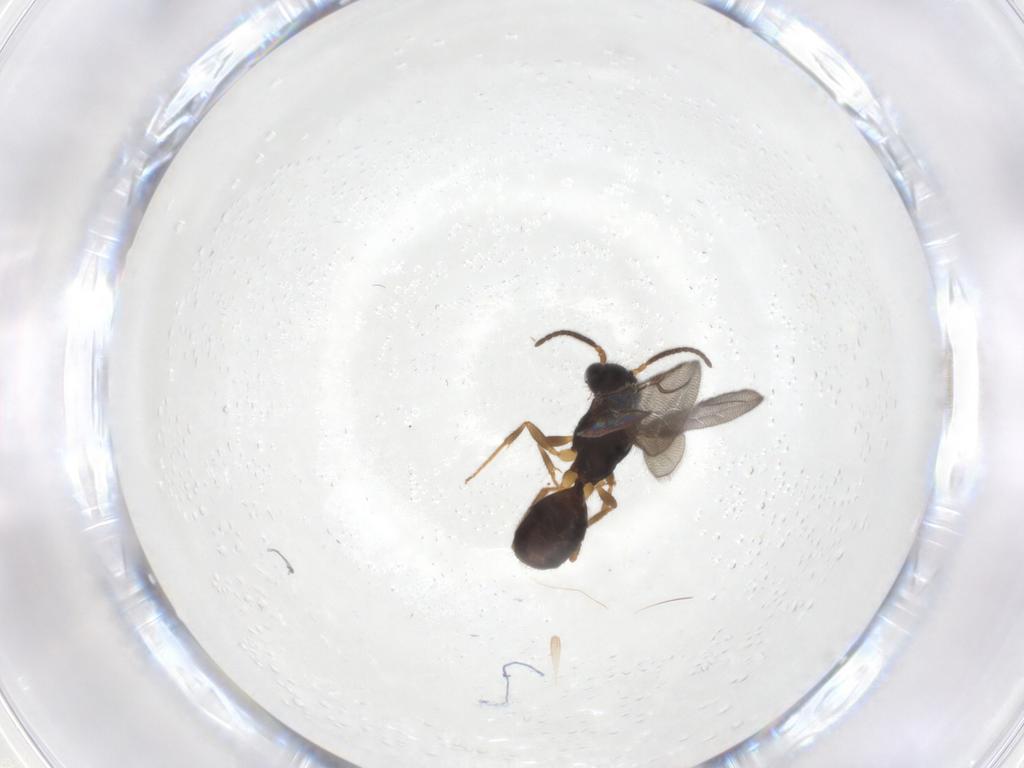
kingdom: Animalia
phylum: Arthropoda
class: Insecta
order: Hymenoptera
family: Bethylidae
